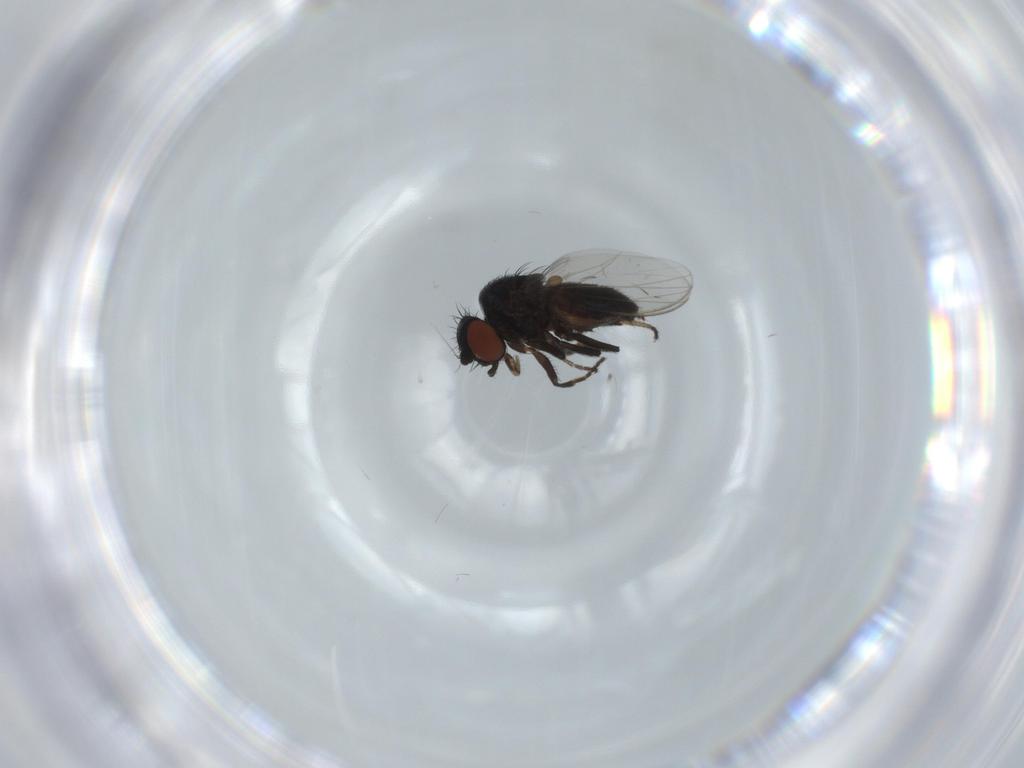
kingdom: Animalia
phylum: Arthropoda
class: Insecta
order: Diptera
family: Milichiidae
